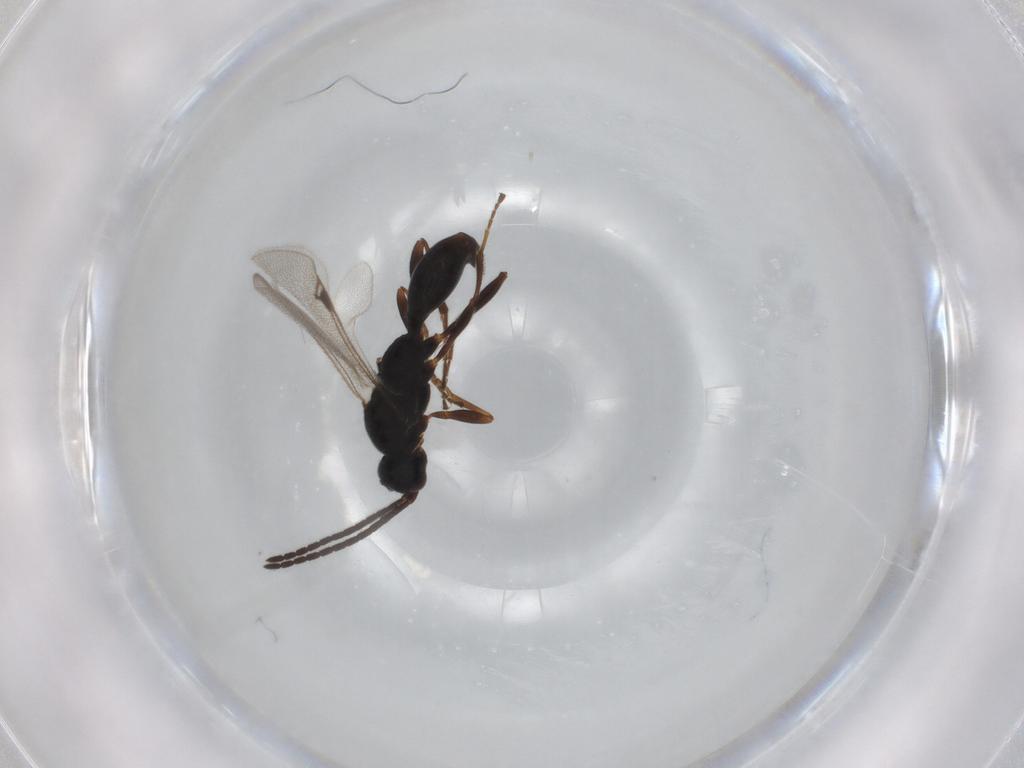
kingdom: Animalia
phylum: Arthropoda
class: Insecta
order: Hymenoptera
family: Proctotrupidae
